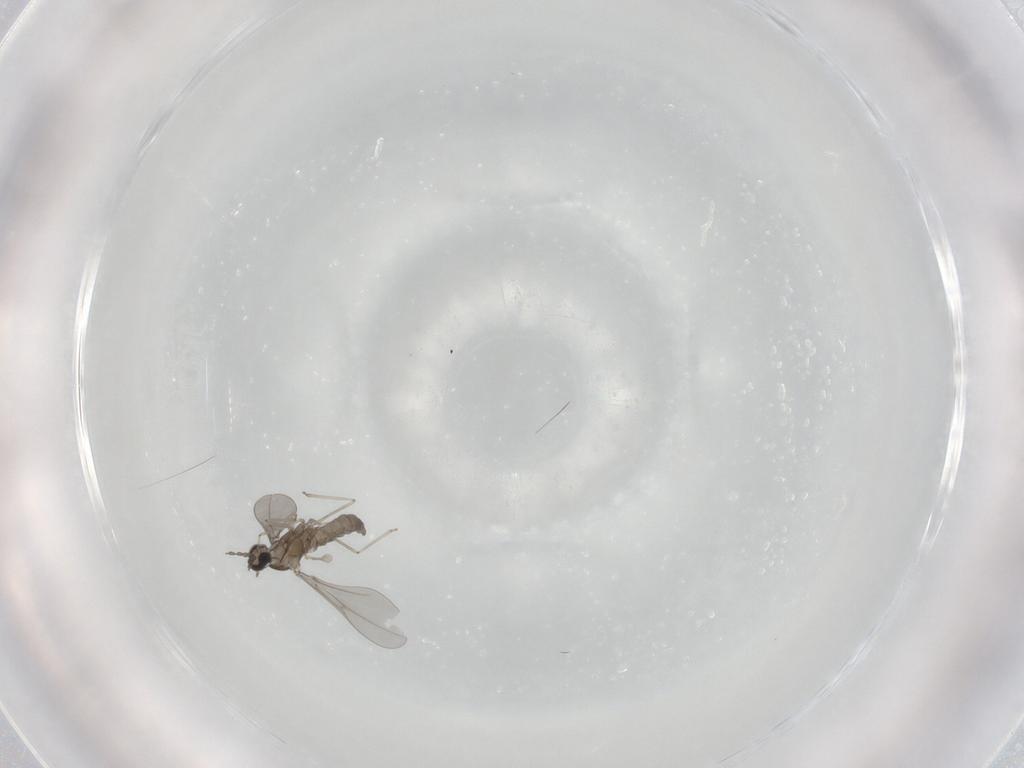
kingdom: Animalia
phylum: Arthropoda
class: Insecta
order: Diptera
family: Cecidomyiidae
